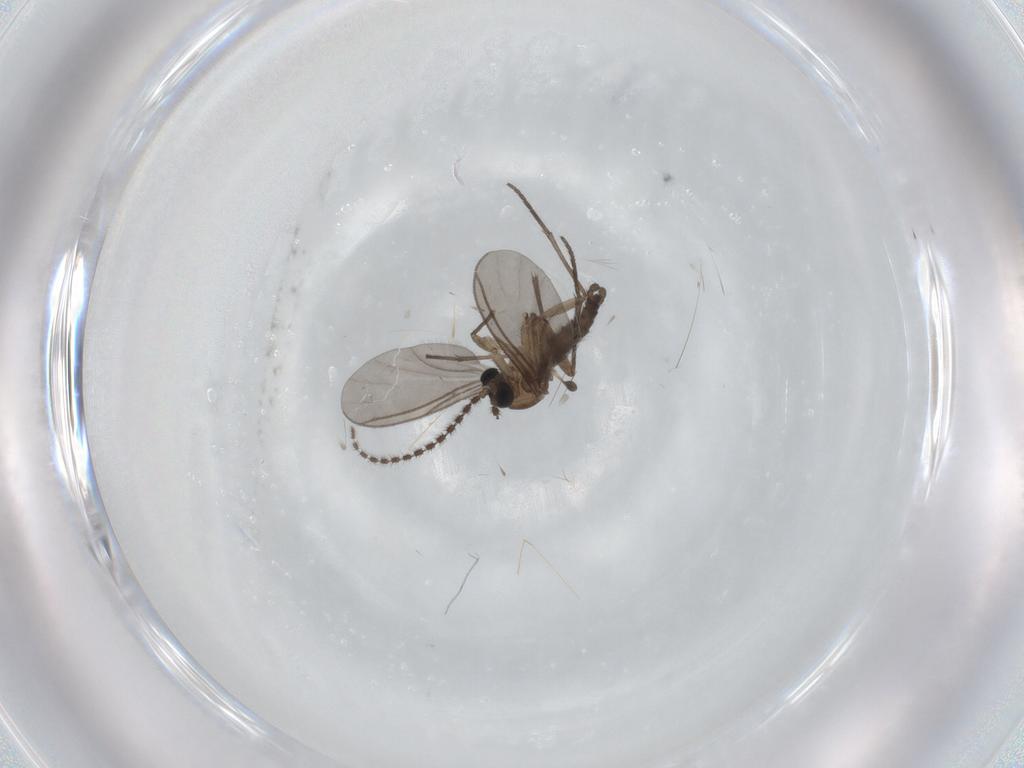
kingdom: Animalia
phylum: Arthropoda
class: Insecta
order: Diptera
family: Sciaridae
